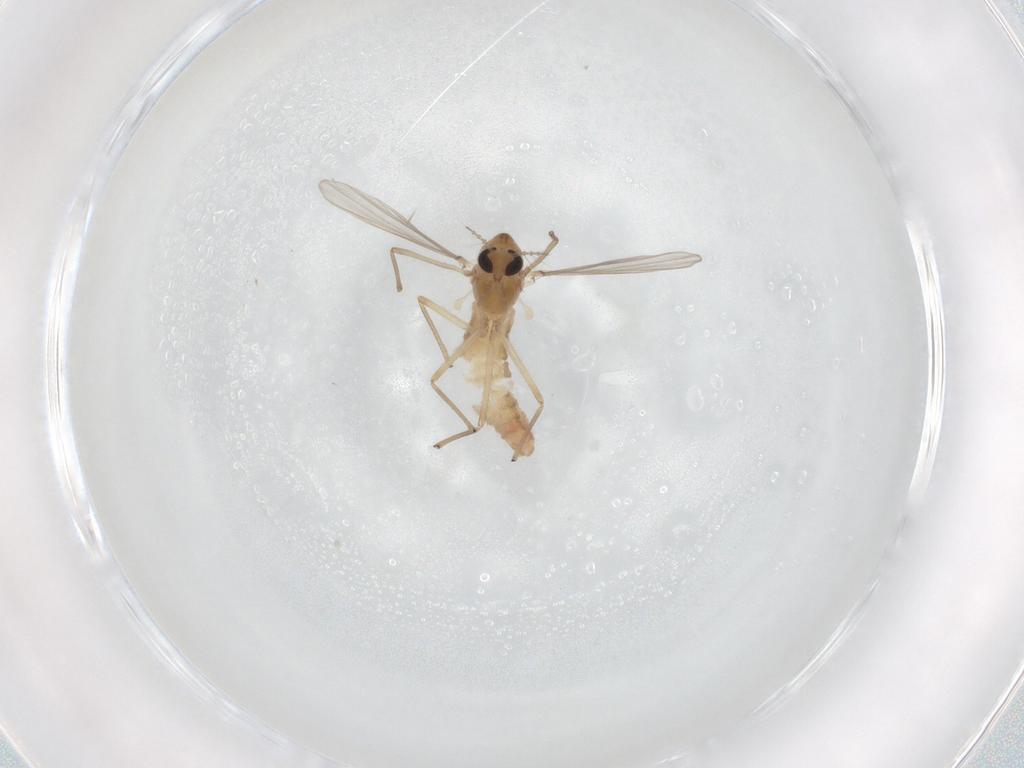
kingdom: Animalia
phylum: Arthropoda
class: Insecta
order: Diptera
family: Chironomidae
